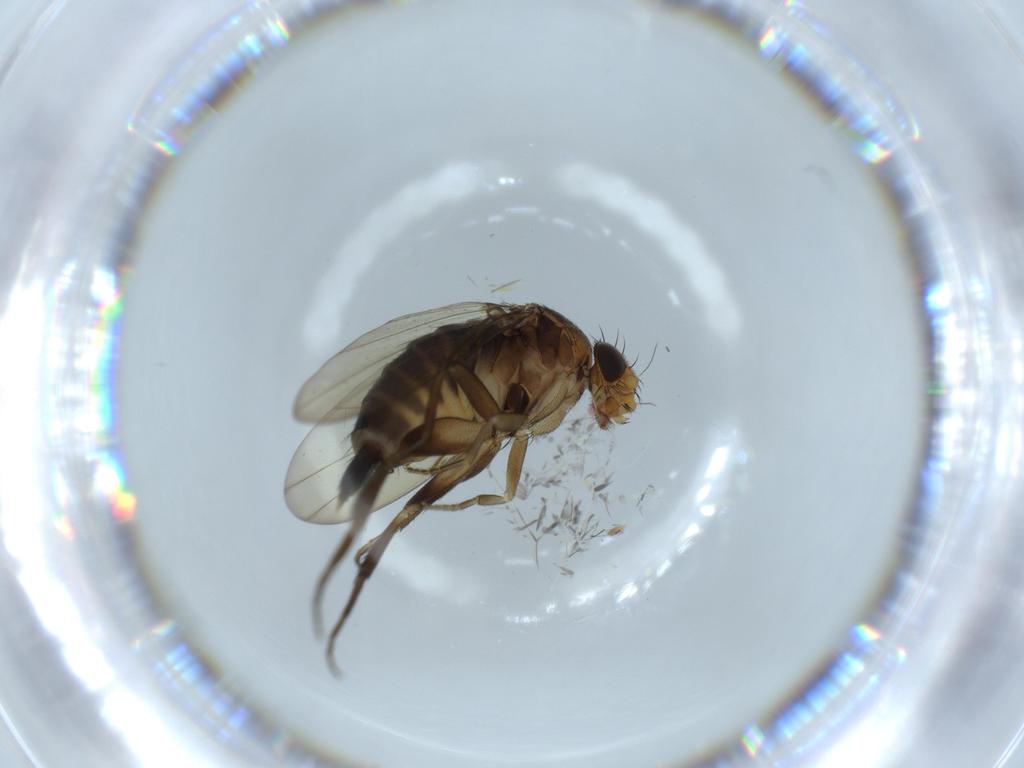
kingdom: Animalia
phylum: Arthropoda
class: Insecta
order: Diptera
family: Phoridae
